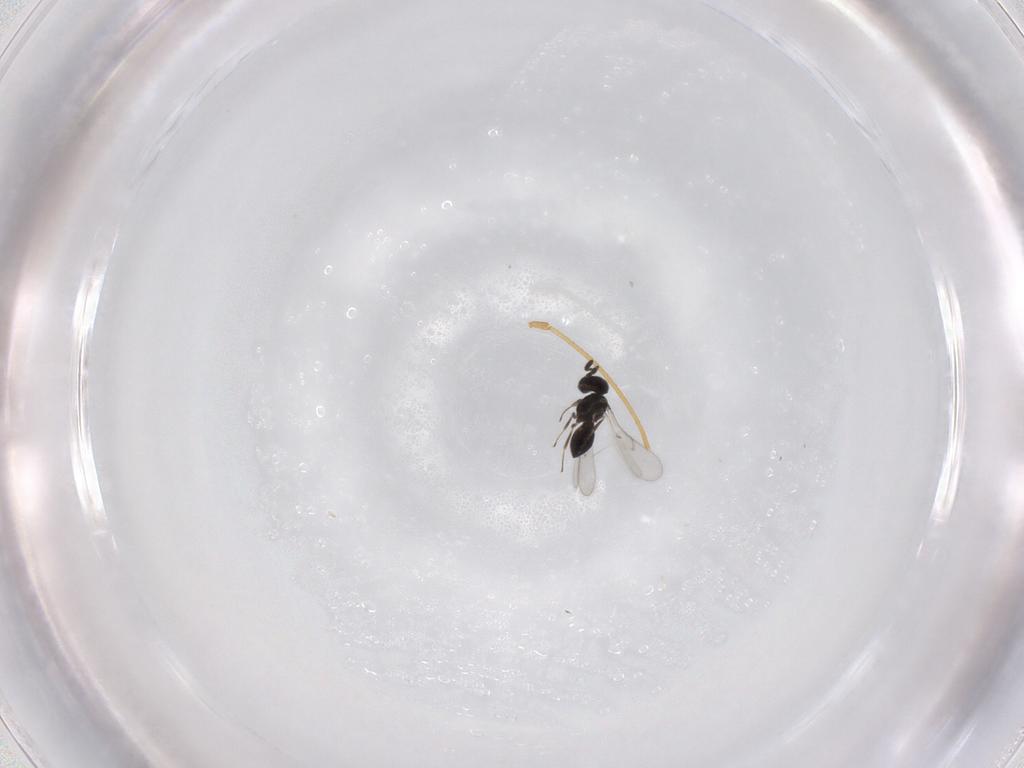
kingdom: Animalia
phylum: Arthropoda
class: Insecta
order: Hymenoptera
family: Scelionidae
